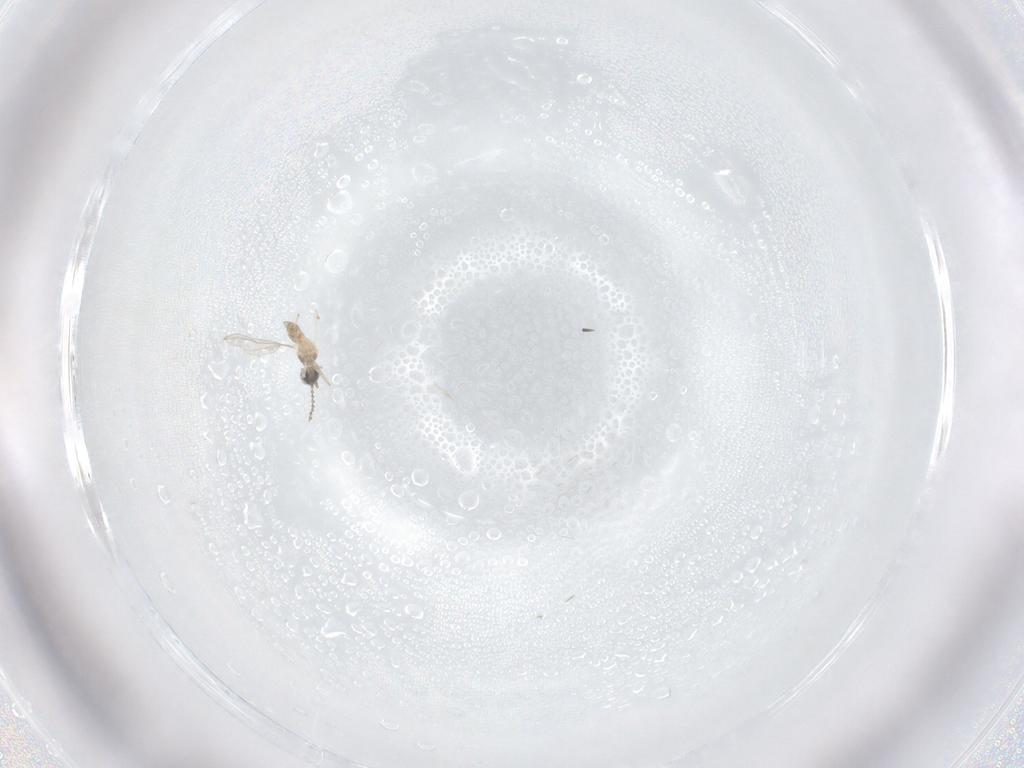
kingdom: Animalia
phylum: Arthropoda
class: Insecta
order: Diptera
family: Cecidomyiidae
